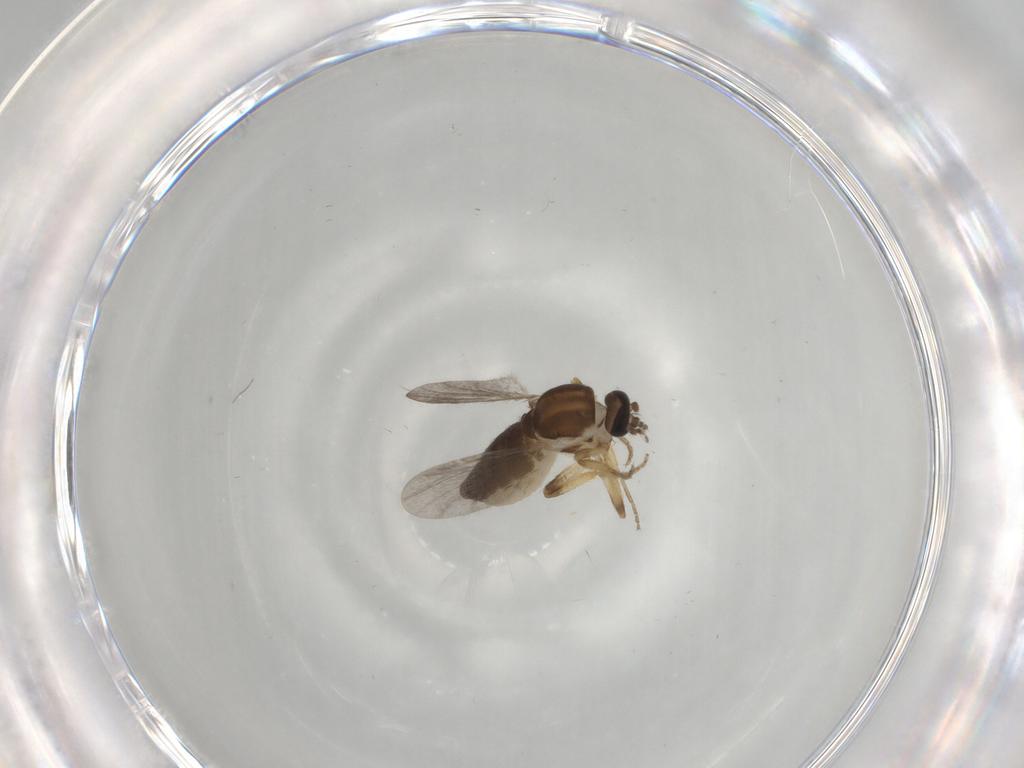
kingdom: Animalia
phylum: Arthropoda
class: Insecta
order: Diptera
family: Ceratopogonidae
